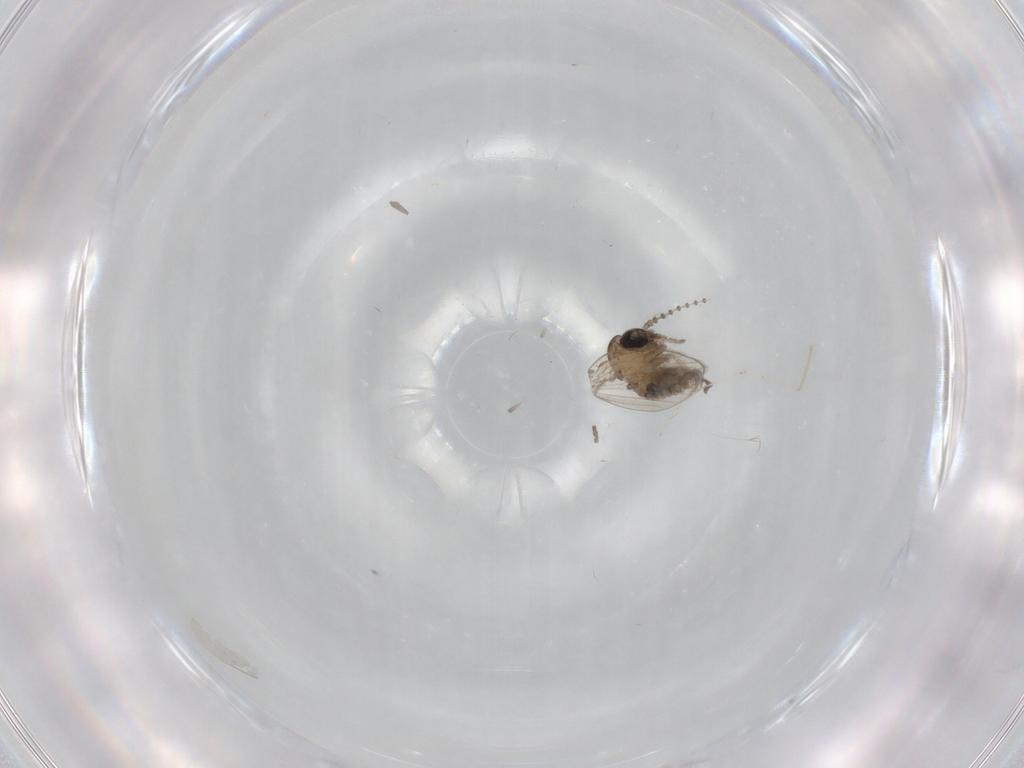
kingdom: Animalia
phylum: Arthropoda
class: Insecta
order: Diptera
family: Psychodidae
